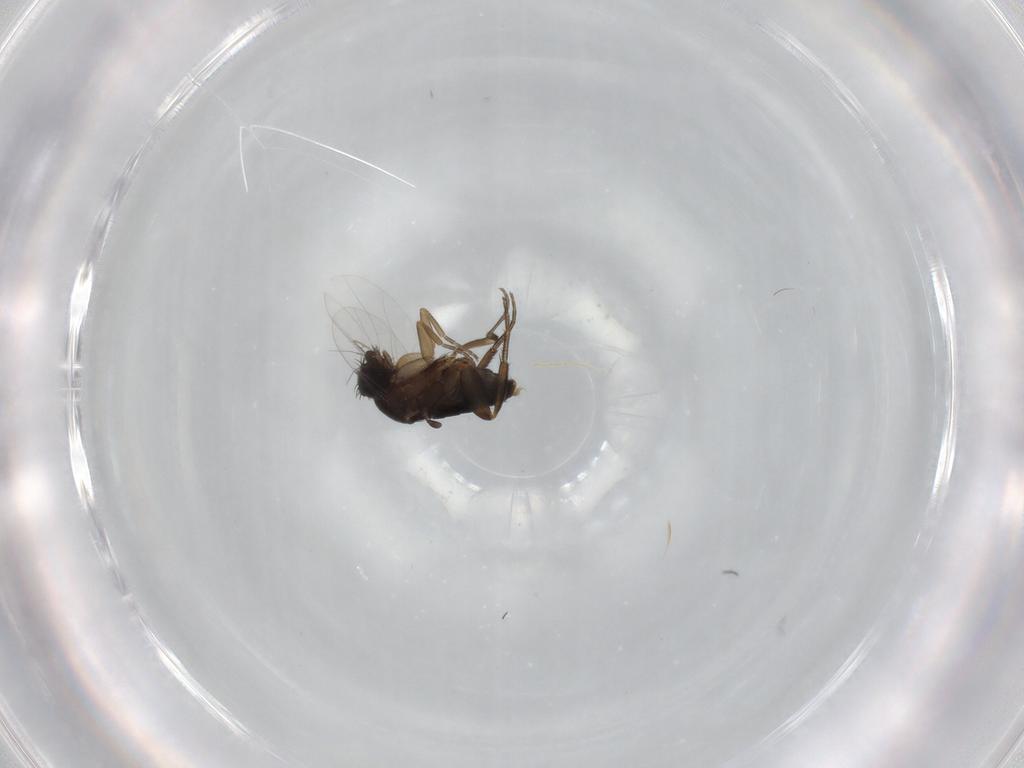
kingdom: Animalia
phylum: Arthropoda
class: Insecta
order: Diptera
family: Phoridae
